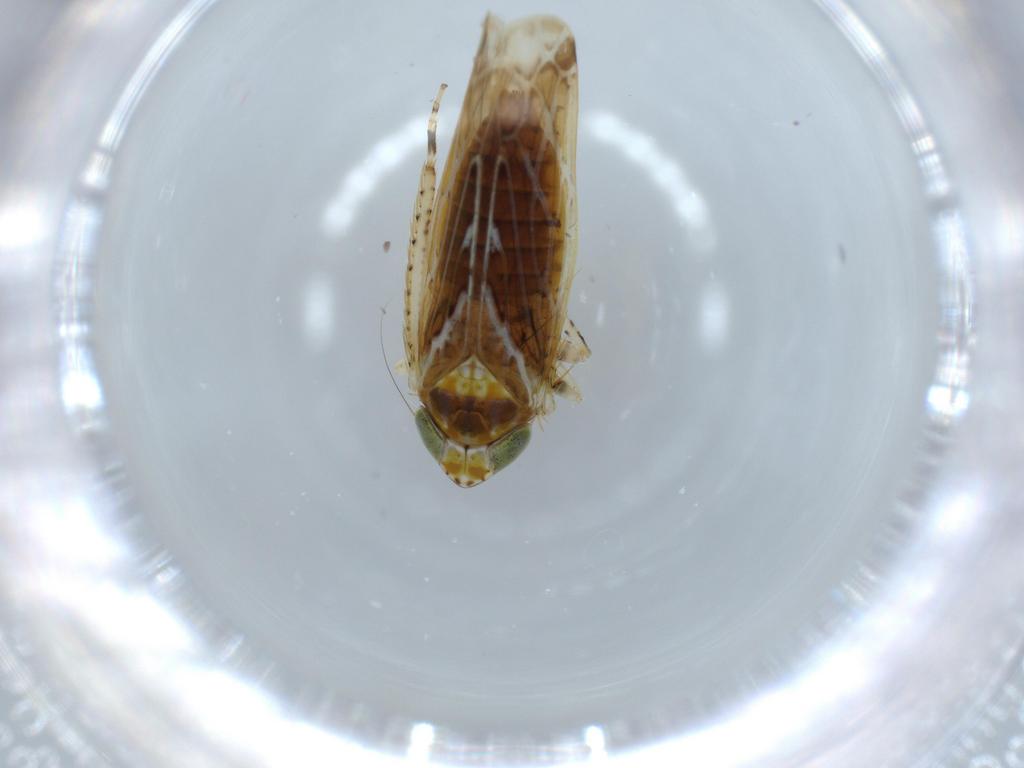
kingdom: Animalia
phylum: Arthropoda
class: Insecta
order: Hemiptera
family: Cicadellidae
